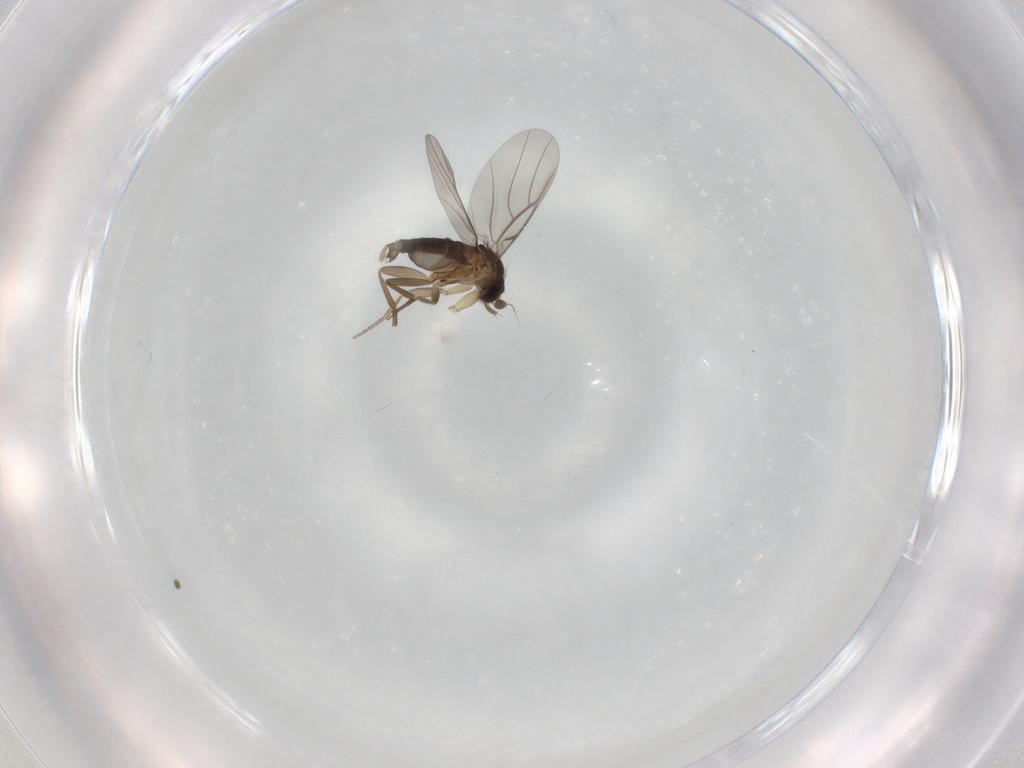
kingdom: Animalia
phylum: Arthropoda
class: Insecta
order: Diptera
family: Phoridae
